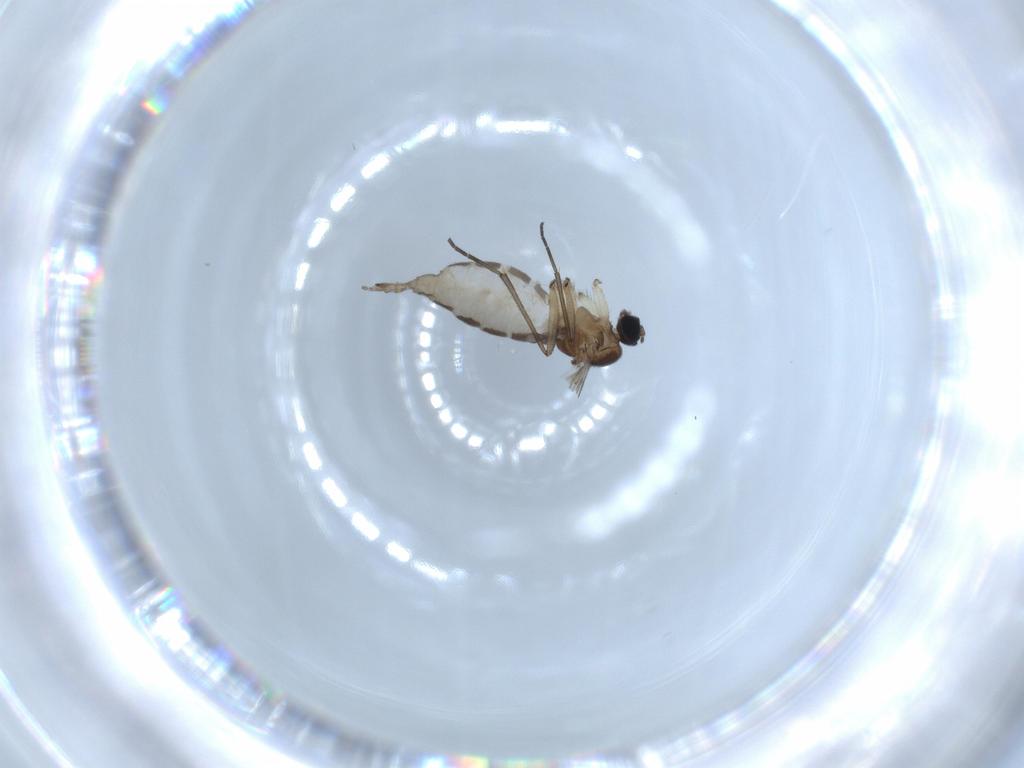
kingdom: Animalia
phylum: Arthropoda
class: Insecta
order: Diptera
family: Sciaridae
